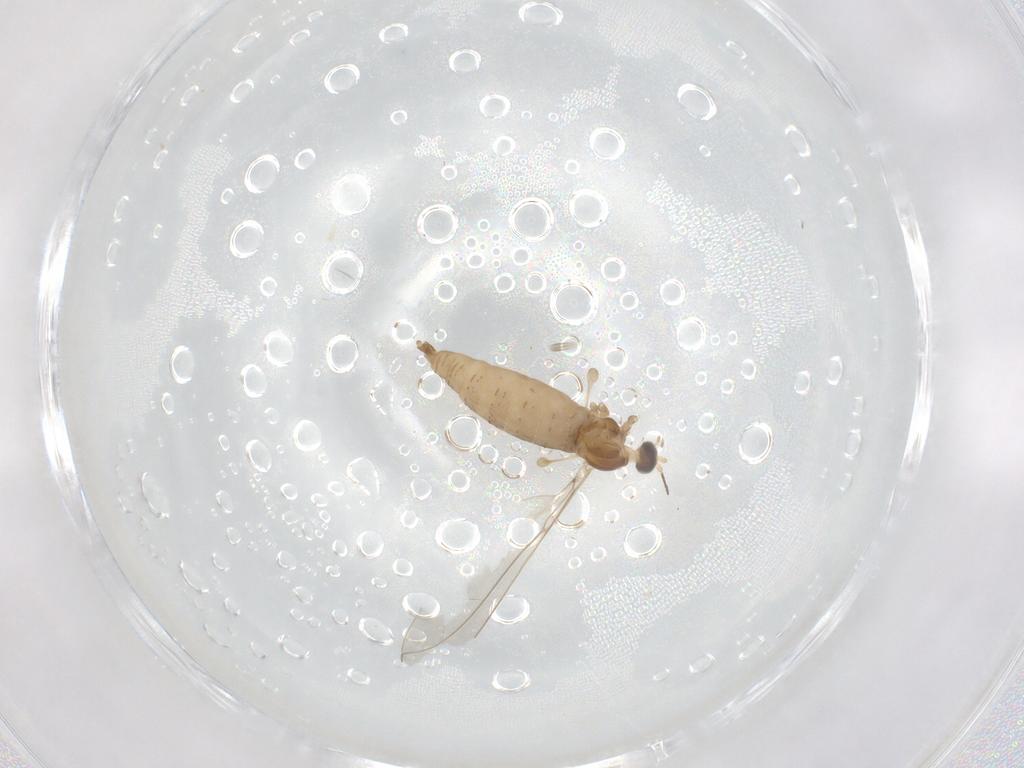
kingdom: Animalia
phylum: Arthropoda
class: Insecta
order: Diptera
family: Cecidomyiidae
